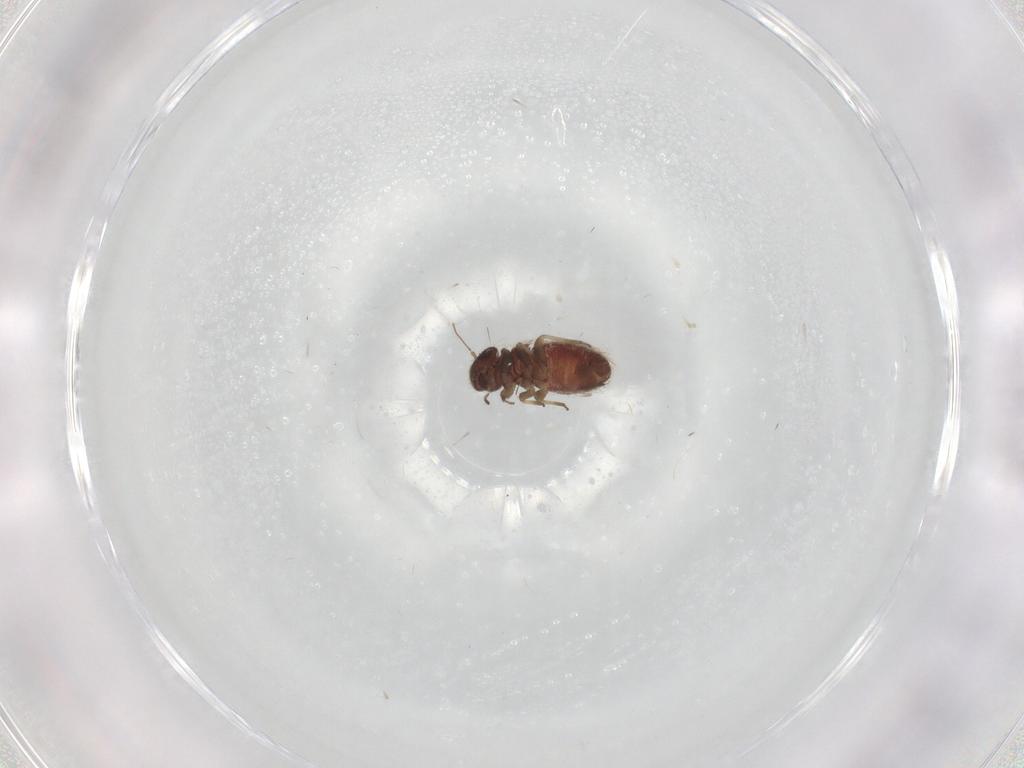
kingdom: Animalia
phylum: Arthropoda
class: Insecta
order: Psocodea
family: Archipsocidae
